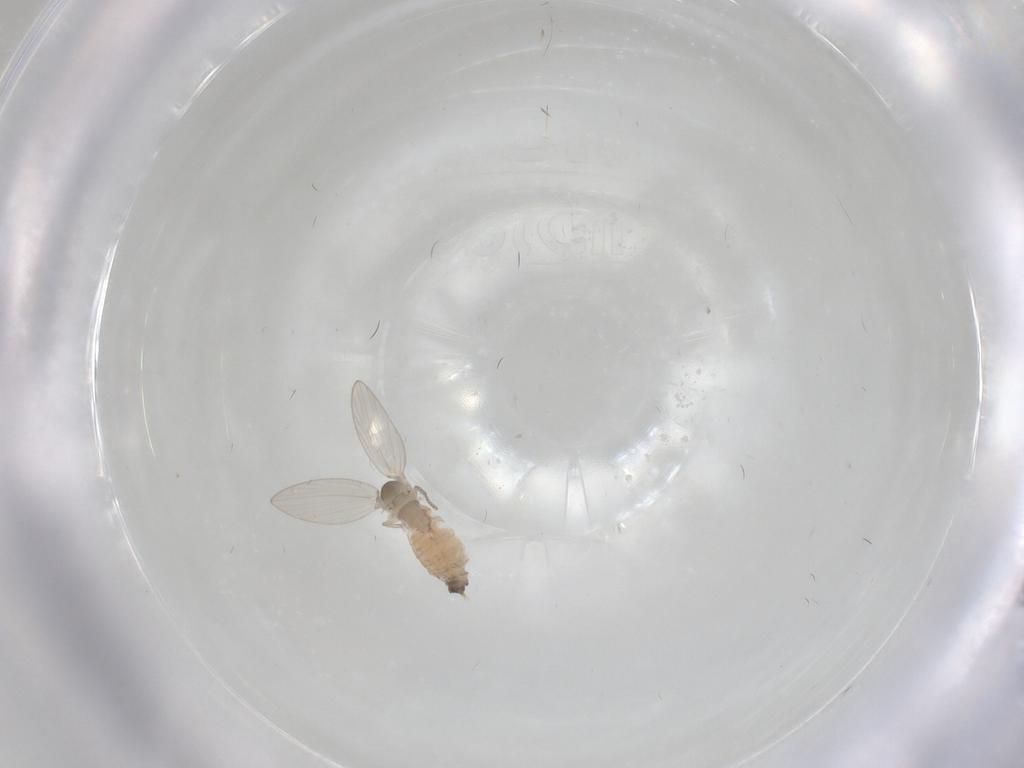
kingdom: Animalia
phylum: Arthropoda
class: Insecta
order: Diptera
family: Psychodidae
